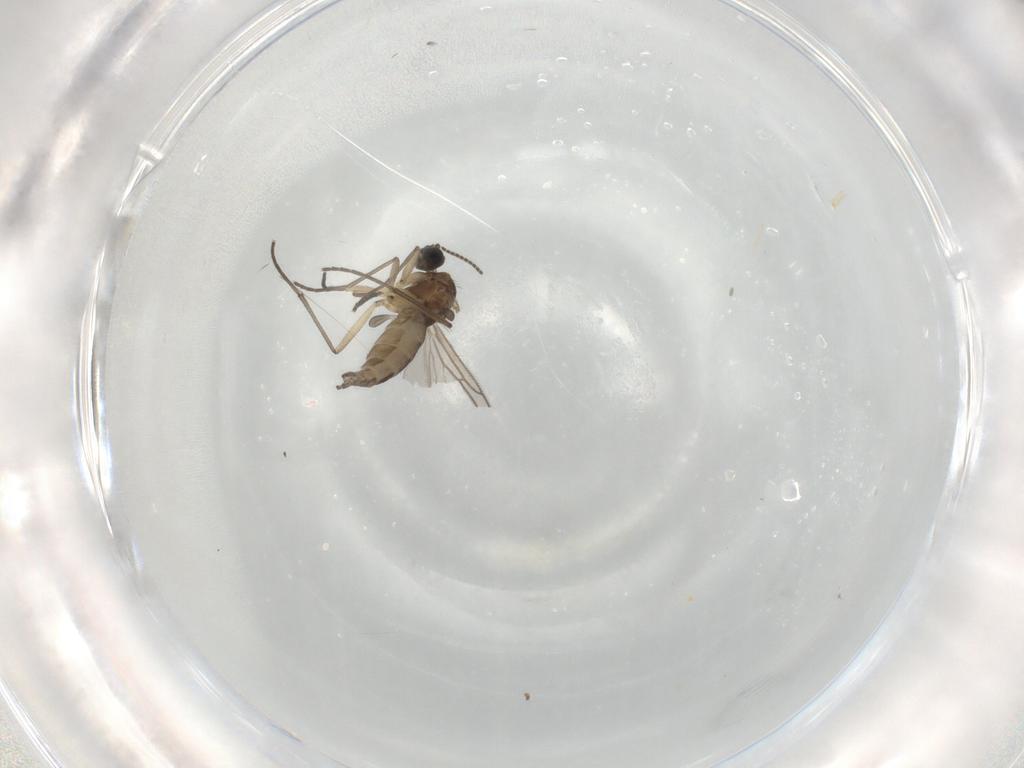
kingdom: Animalia
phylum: Arthropoda
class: Insecta
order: Diptera
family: Sciaridae
